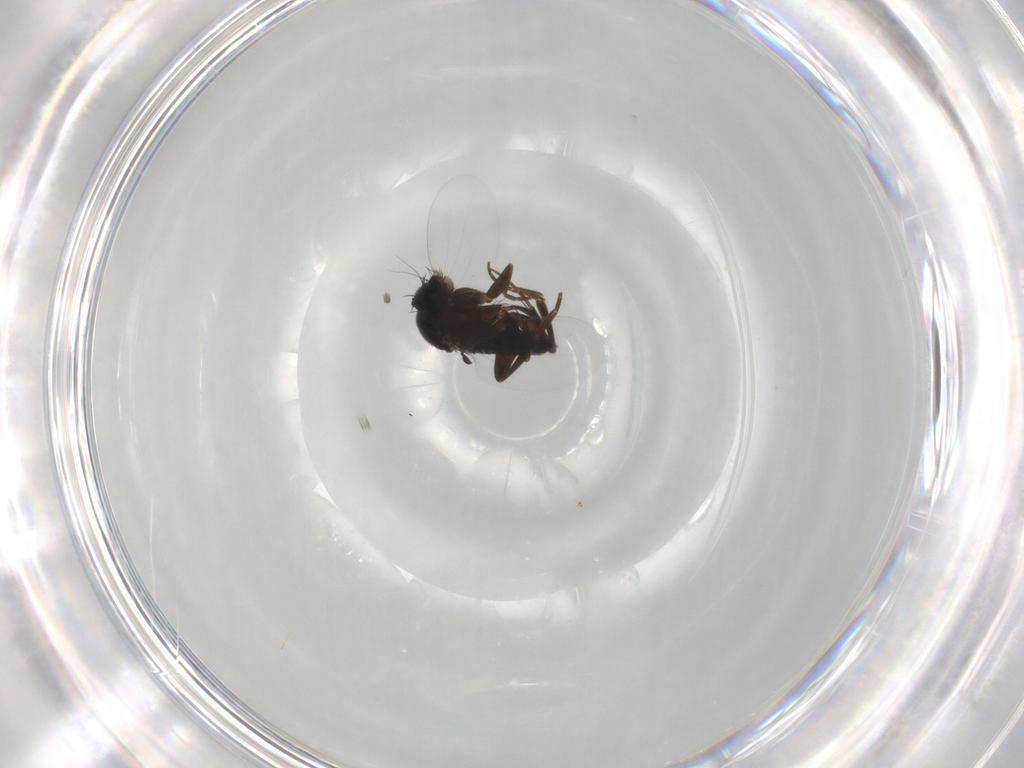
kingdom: Animalia
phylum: Arthropoda
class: Insecta
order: Diptera
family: Phoridae
